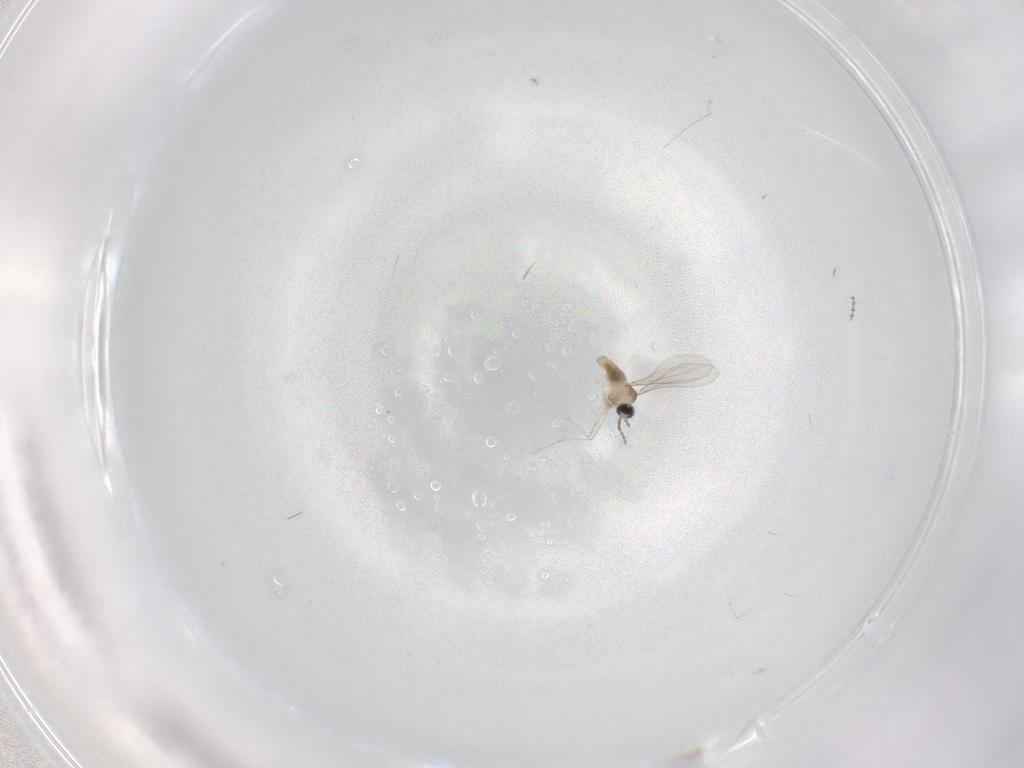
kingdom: Animalia
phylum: Arthropoda
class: Insecta
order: Diptera
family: Cecidomyiidae
